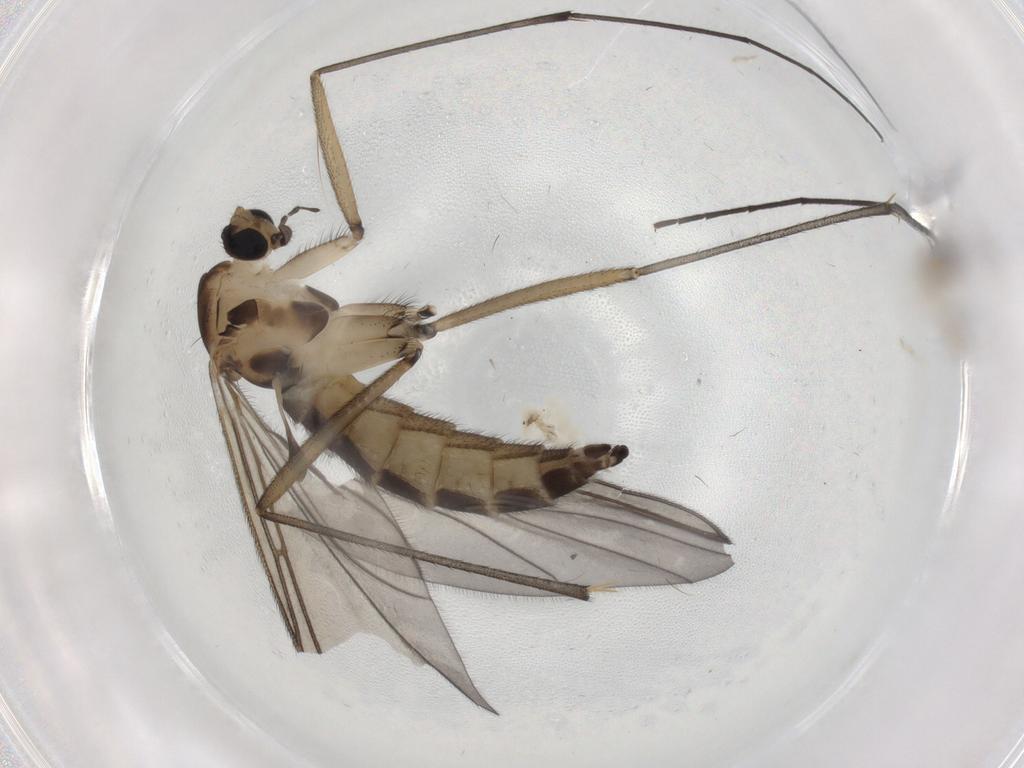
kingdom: Animalia
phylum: Arthropoda
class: Insecta
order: Diptera
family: Sciaridae
